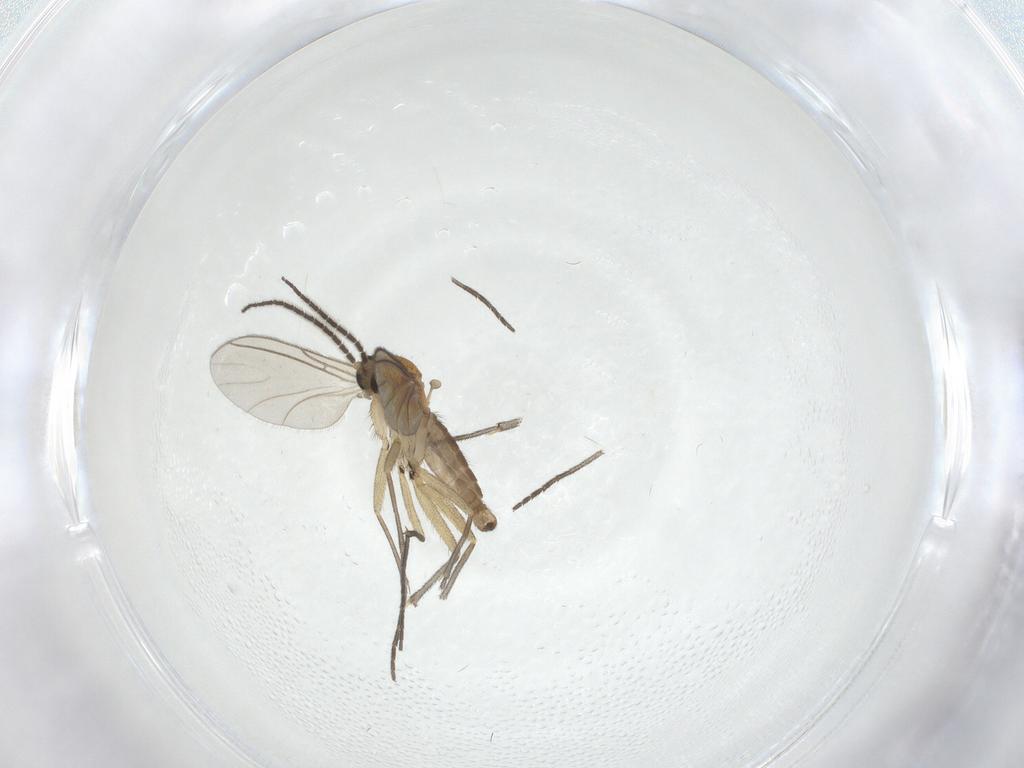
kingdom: Animalia
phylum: Arthropoda
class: Insecta
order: Diptera
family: Sciaridae
